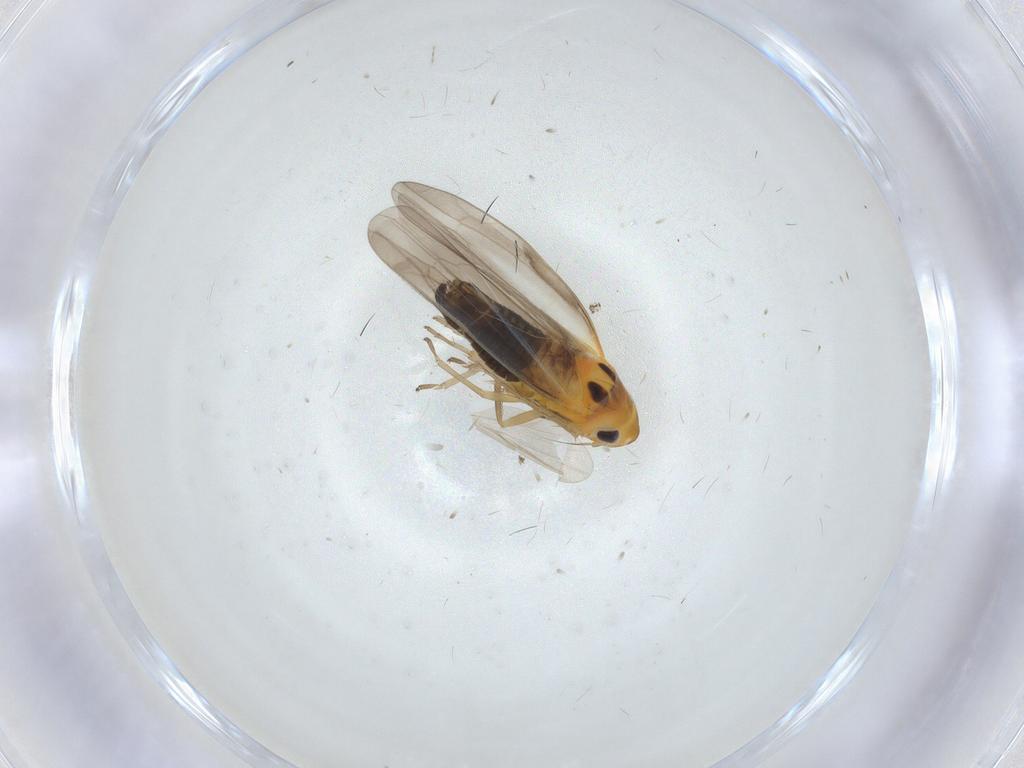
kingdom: Animalia
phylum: Arthropoda
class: Insecta
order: Hemiptera
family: Cicadellidae
